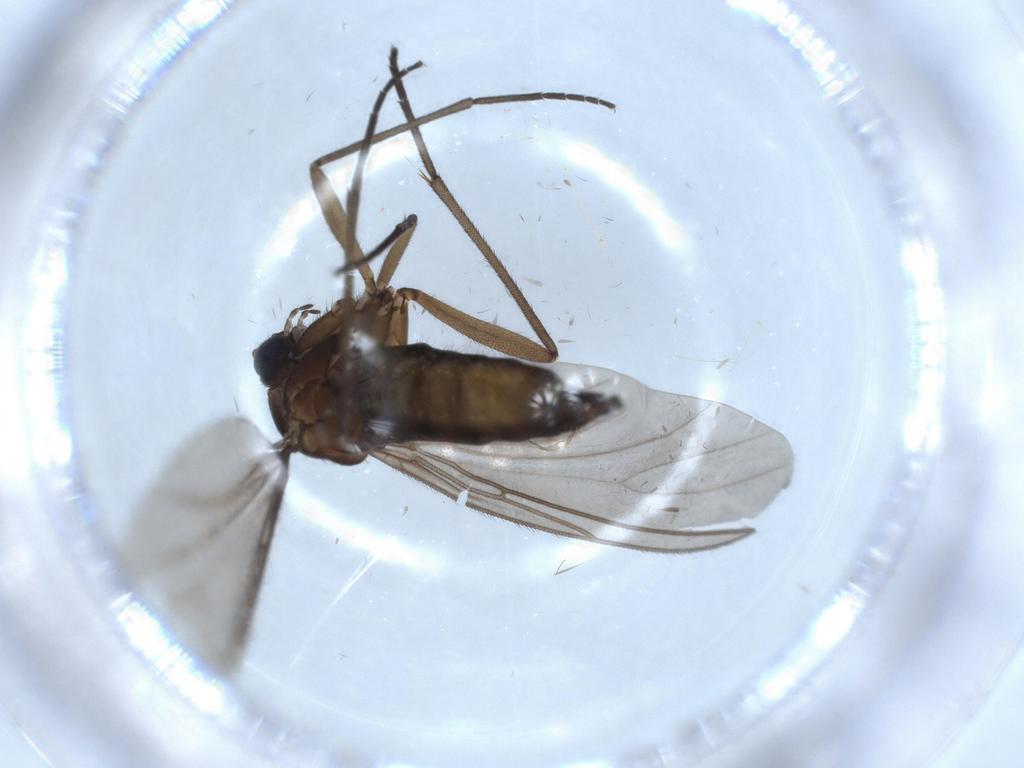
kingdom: Animalia
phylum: Arthropoda
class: Insecta
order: Diptera
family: Sciaridae
